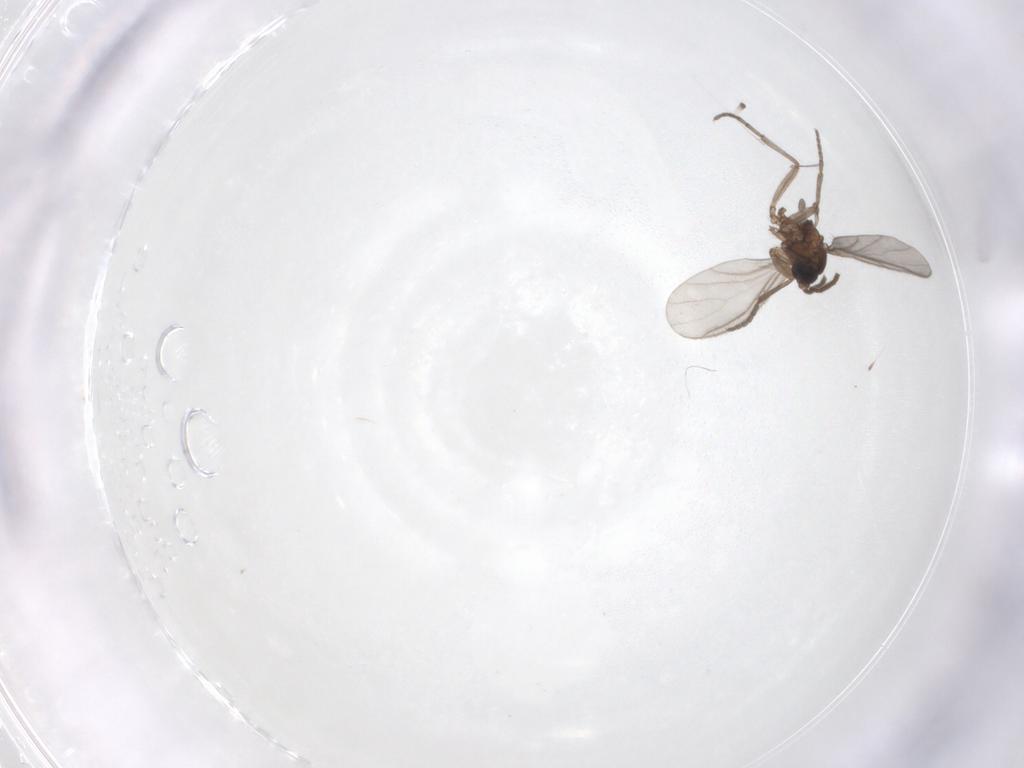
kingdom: Animalia
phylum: Arthropoda
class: Insecta
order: Diptera
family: Sciaridae
